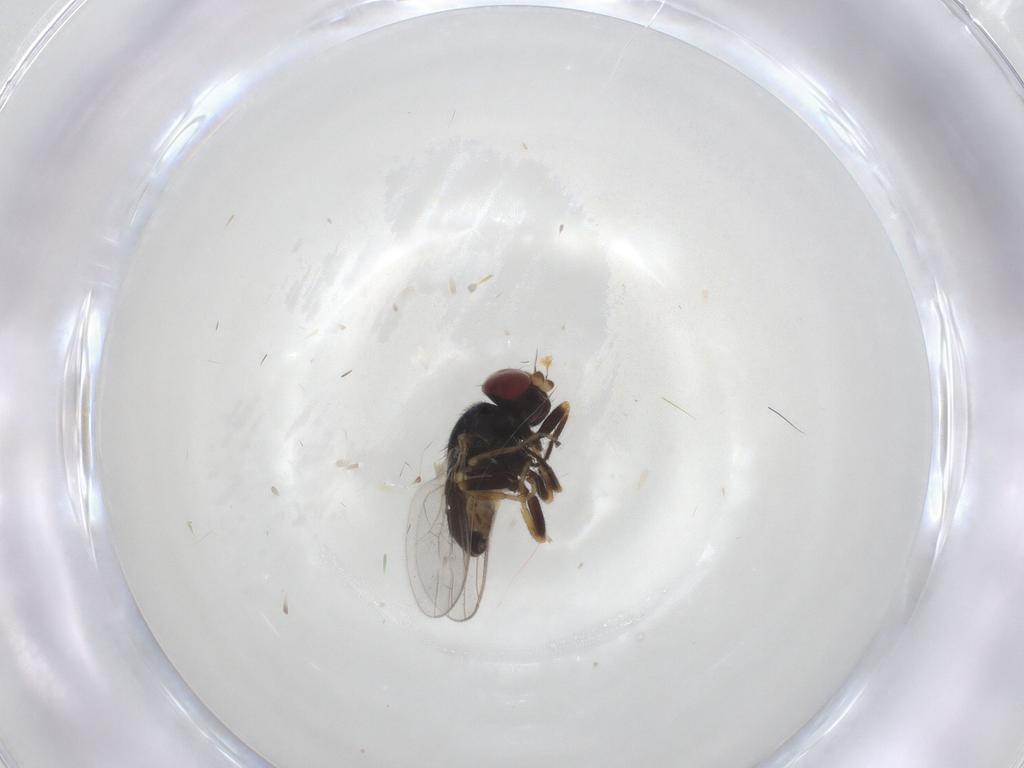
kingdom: Animalia
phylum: Arthropoda
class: Insecta
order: Diptera
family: Chloropidae
